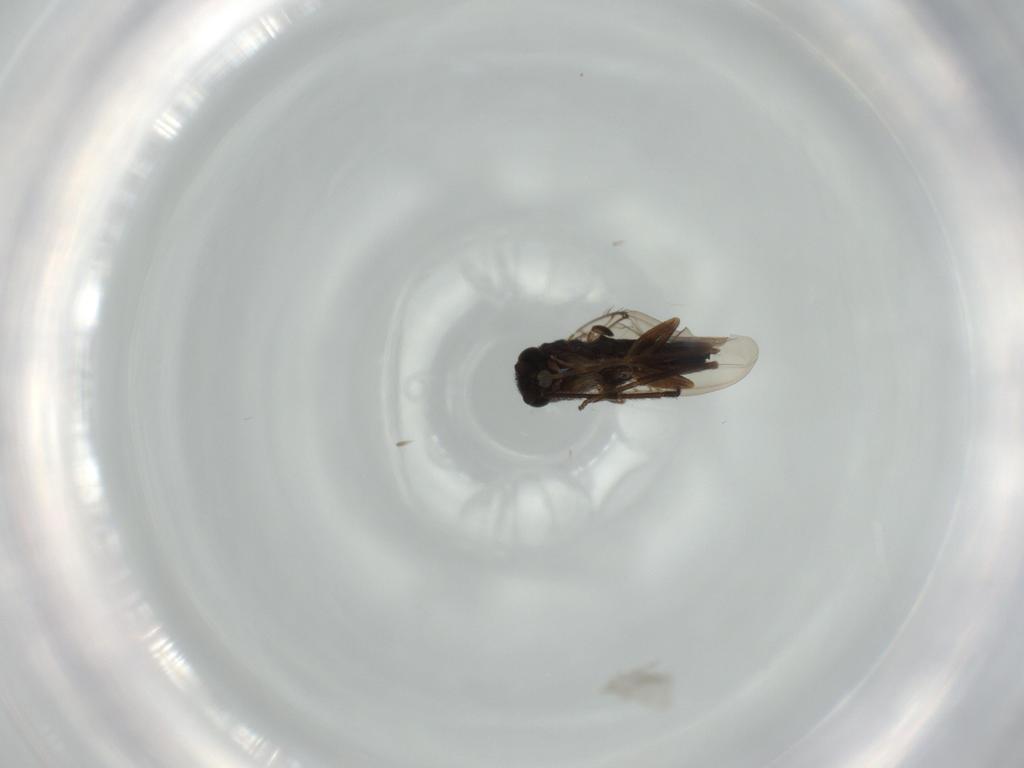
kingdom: Animalia
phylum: Arthropoda
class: Insecta
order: Diptera
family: Phoridae
